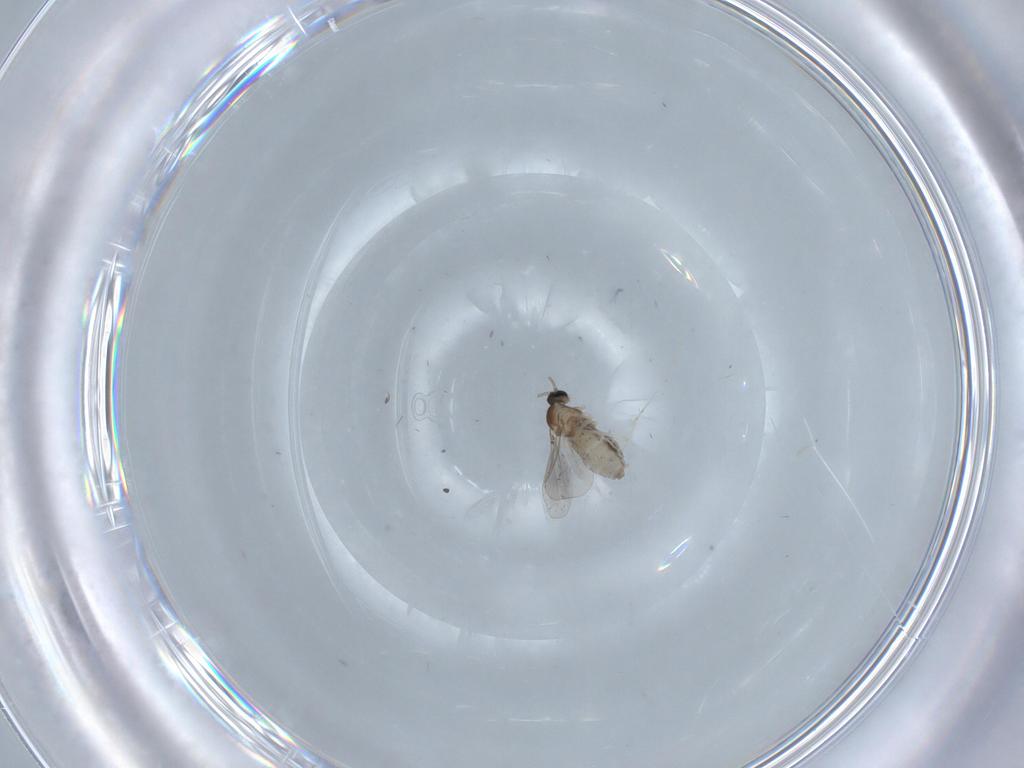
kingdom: Animalia
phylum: Arthropoda
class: Insecta
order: Diptera
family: Cecidomyiidae
